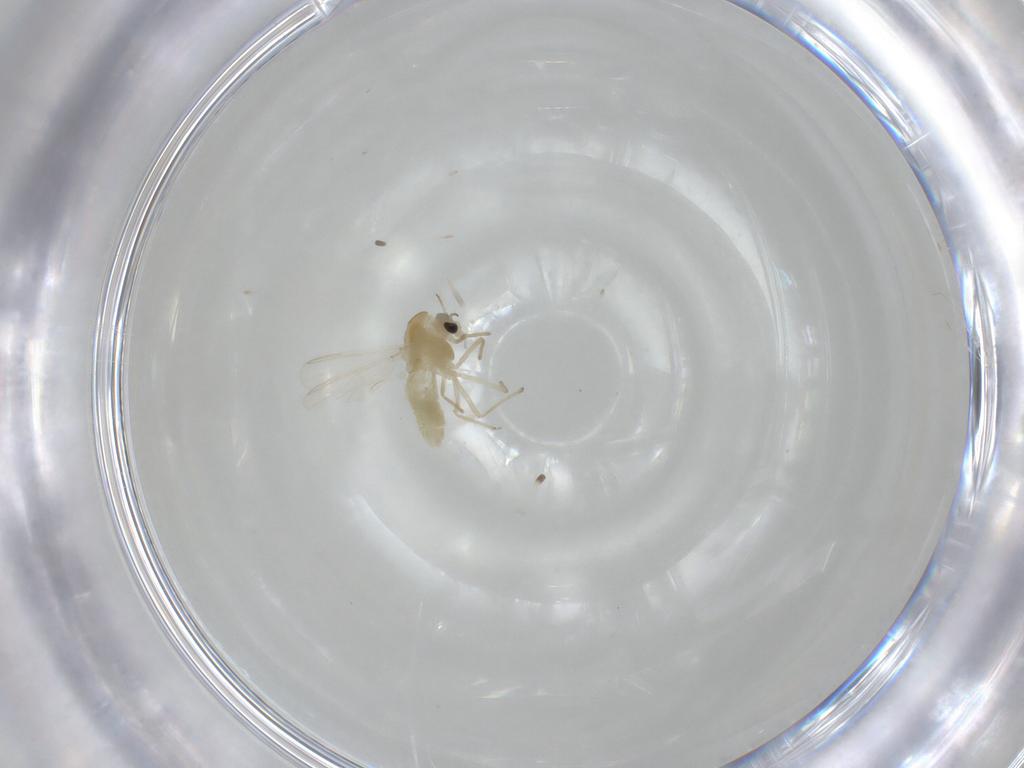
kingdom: Animalia
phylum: Arthropoda
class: Insecta
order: Diptera
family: Chironomidae
